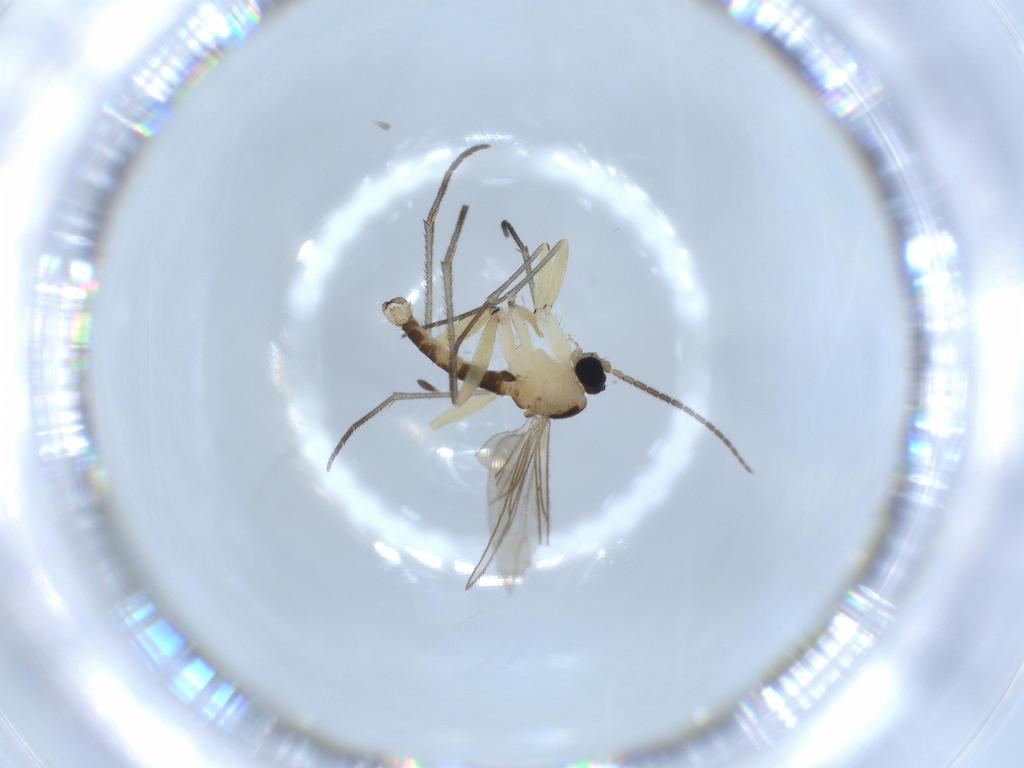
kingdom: Animalia
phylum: Arthropoda
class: Insecta
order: Diptera
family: Sciaridae
